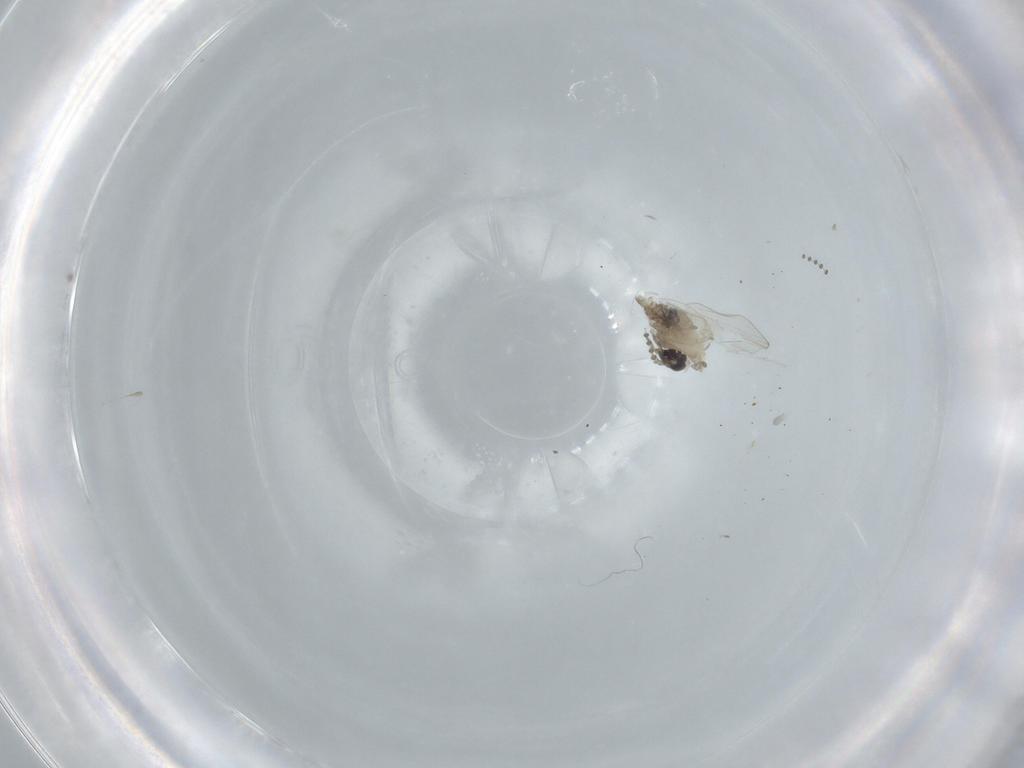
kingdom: Animalia
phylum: Arthropoda
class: Insecta
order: Diptera
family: Psychodidae
